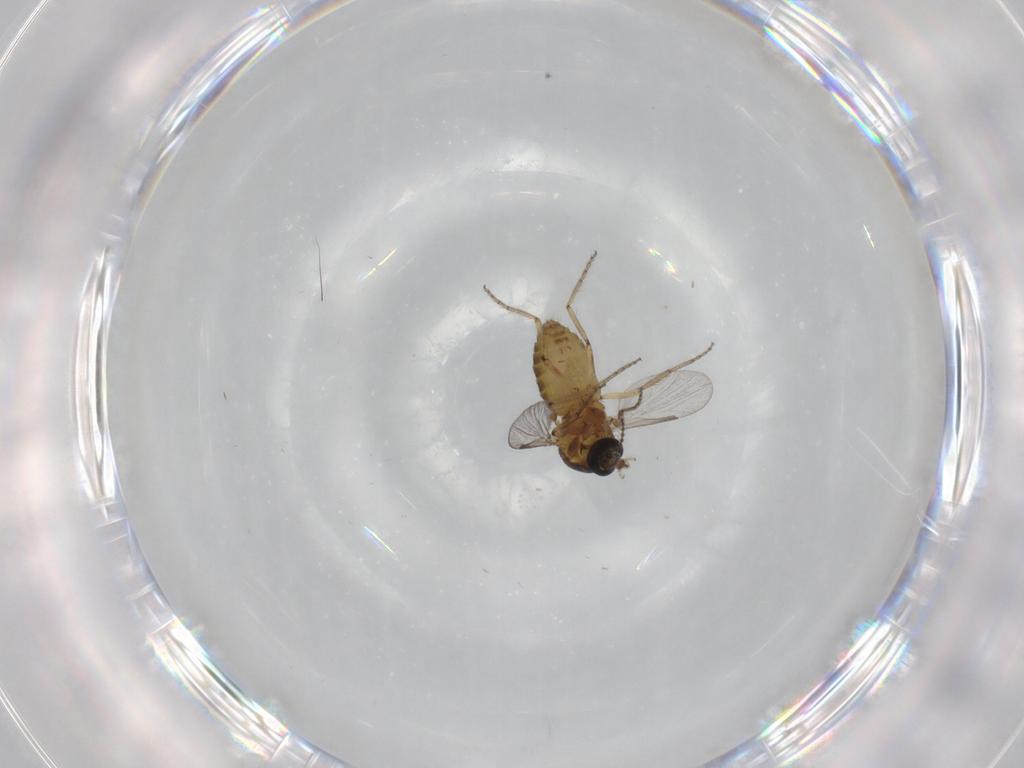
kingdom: Animalia
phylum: Arthropoda
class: Insecta
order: Diptera
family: Ceratopogonidae
